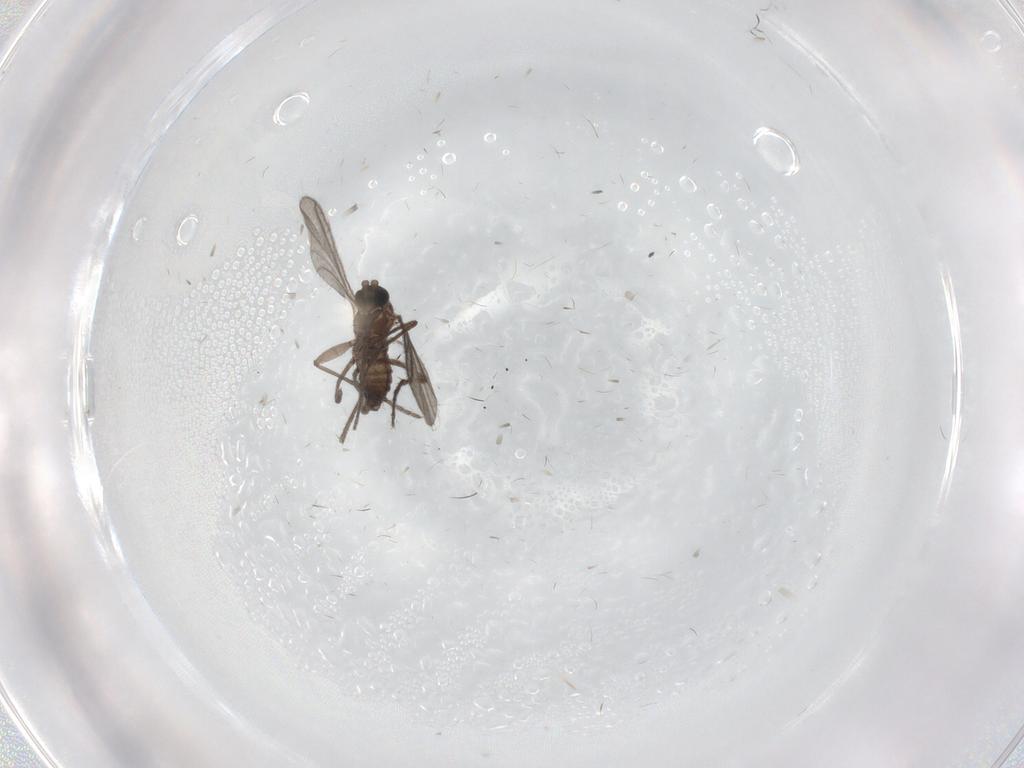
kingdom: Animalia
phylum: Arthropoda
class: Insecta
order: Diptera
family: Sciaridae
